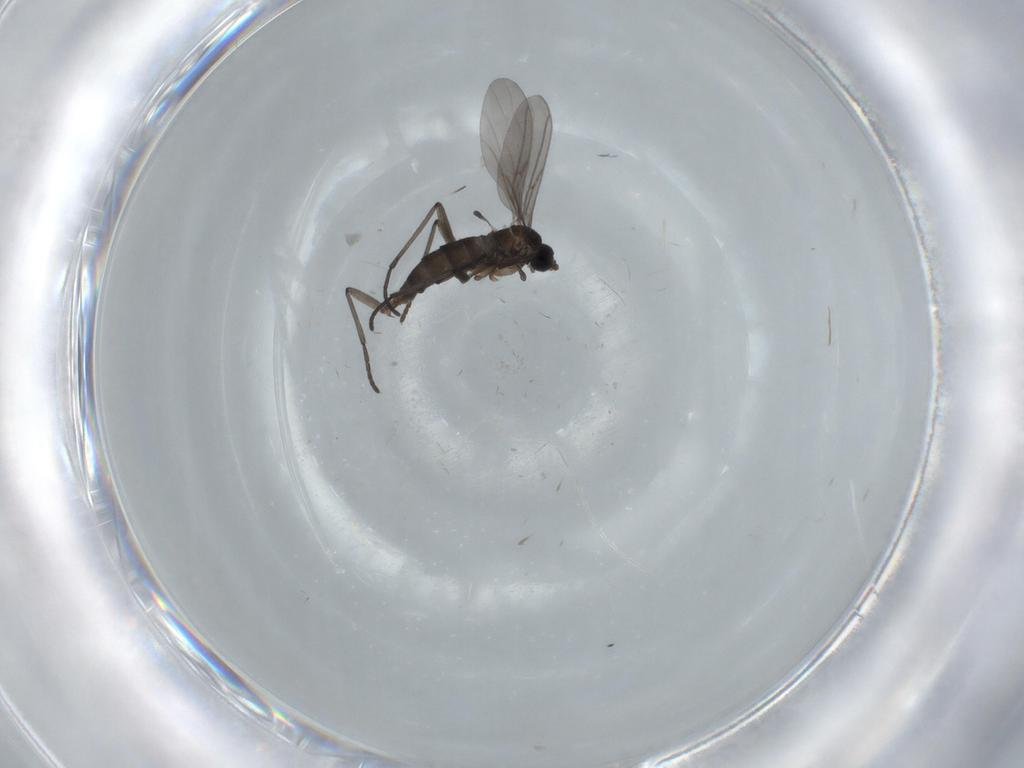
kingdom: Animalia
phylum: Arthropoda
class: Insecta
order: Diptera
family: Sciaridae
